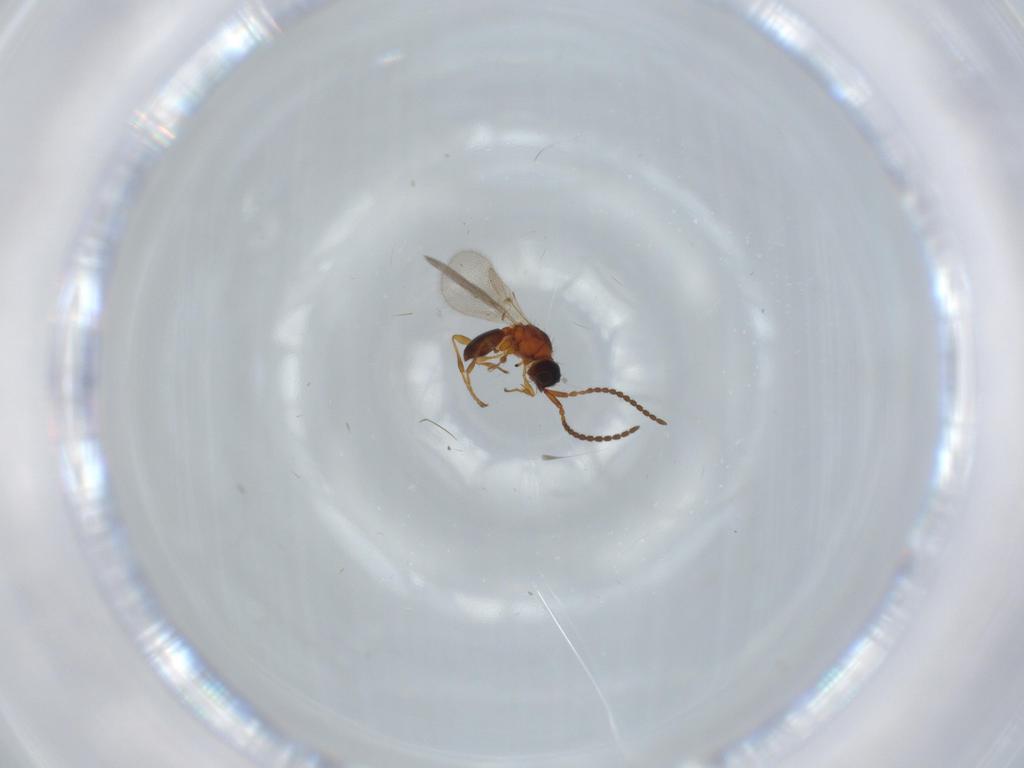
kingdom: Animalia
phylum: Arthropoda
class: Insecta
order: Hymenoptera
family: Diapriidae
